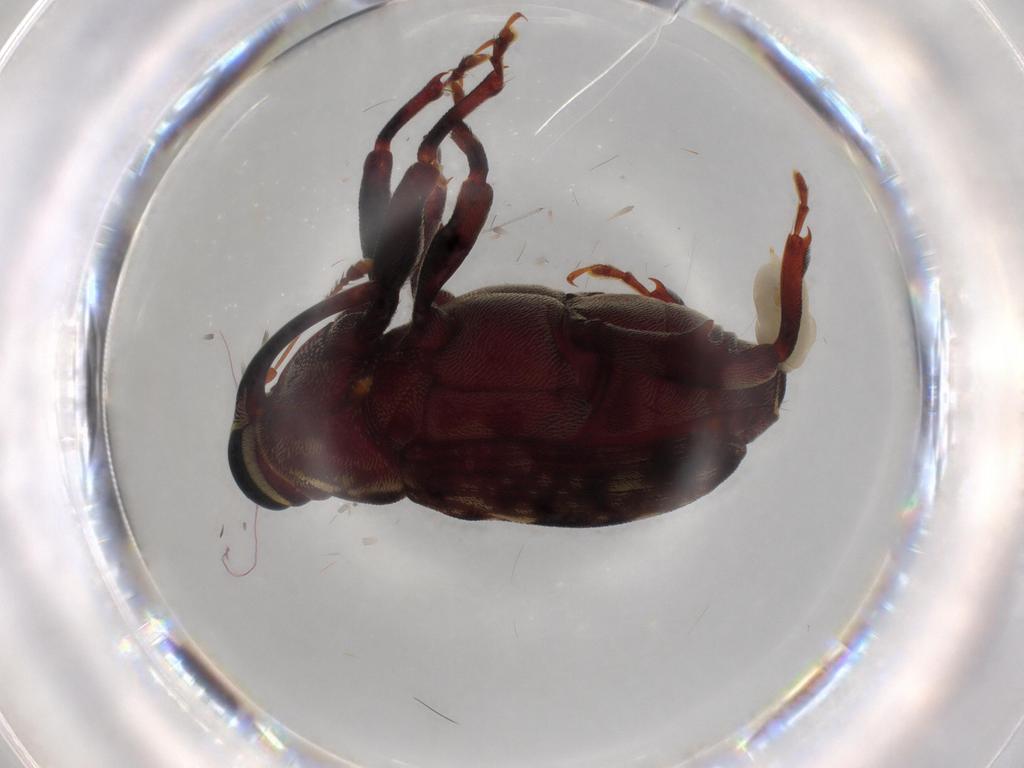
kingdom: Animalia
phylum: Arthropoda
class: Insecta
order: Coleoptera
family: Curculionidae
